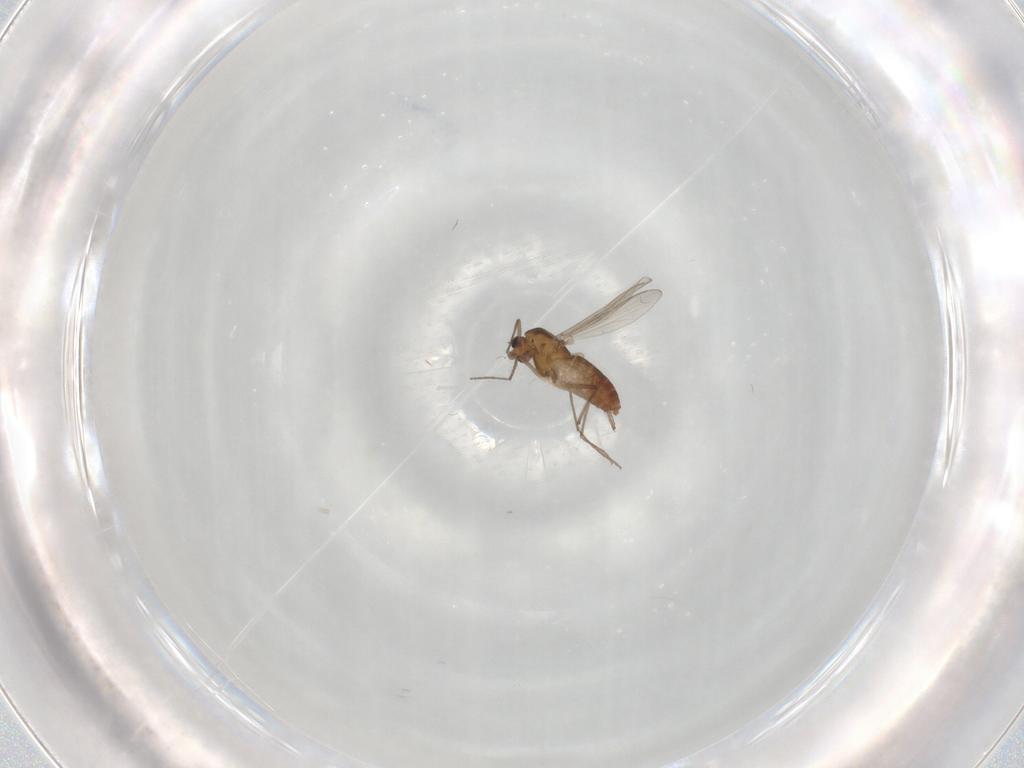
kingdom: Animalia
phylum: Arthropoda
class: Insecta
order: Diptera
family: Chironomidae
